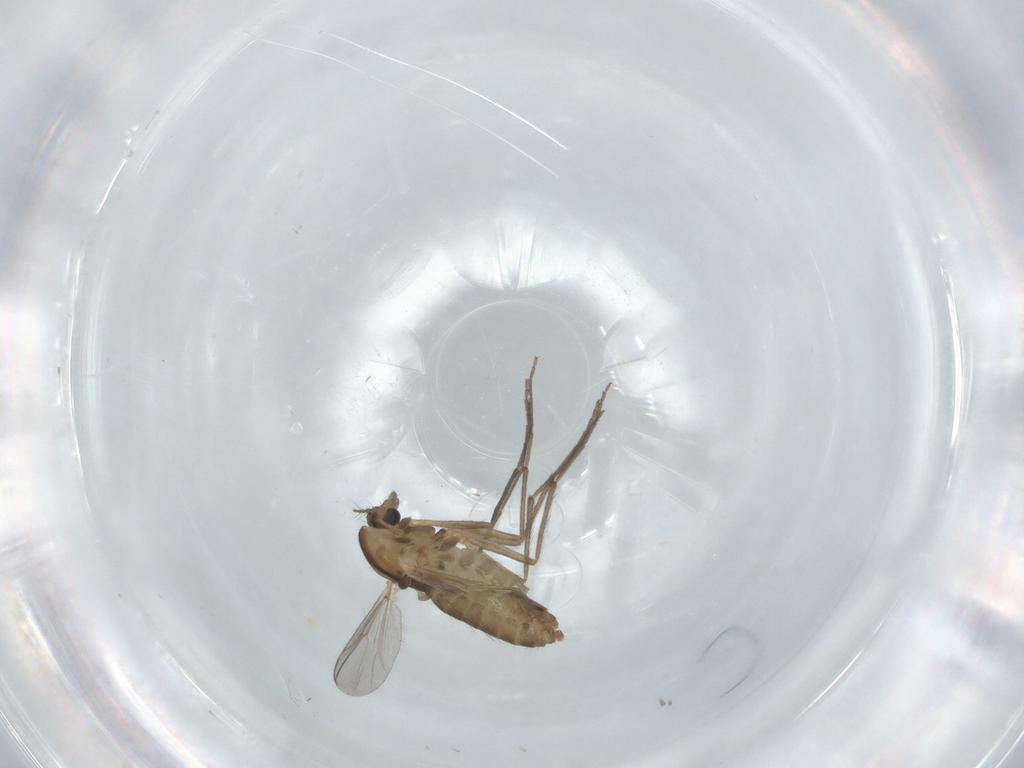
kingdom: Animalia
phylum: Arthropoda
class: Insecta
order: Diptera
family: Chironomidae
